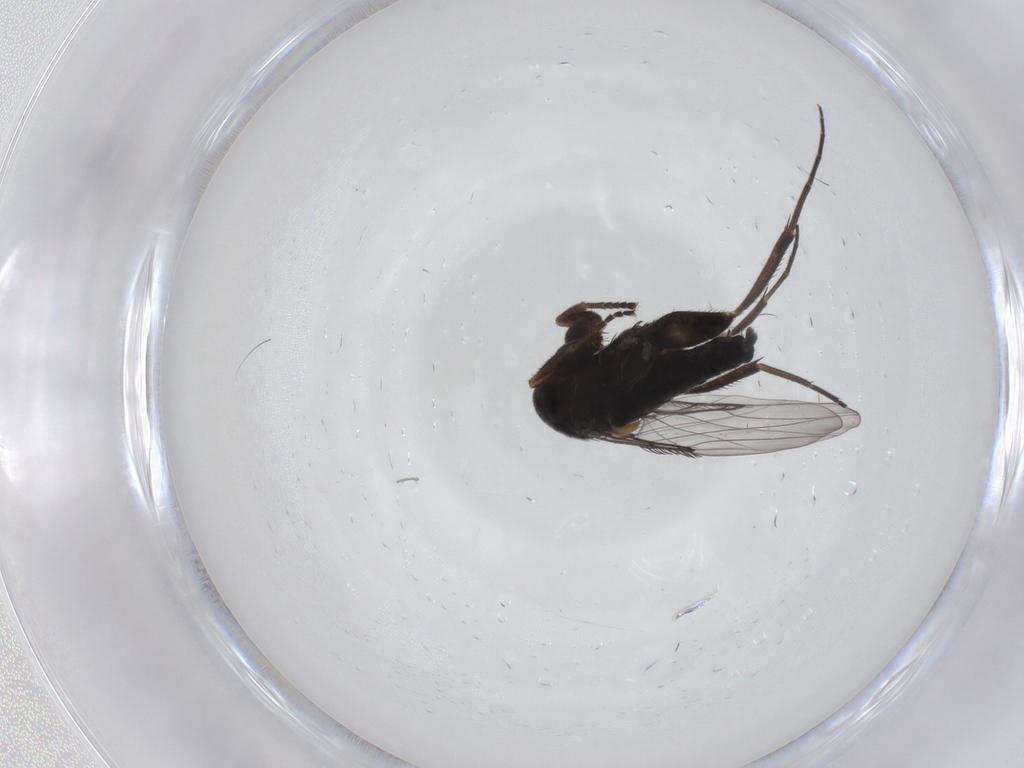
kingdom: Animalia
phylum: Arthropoda
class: Insecta
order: Diptera
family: Phoridae
